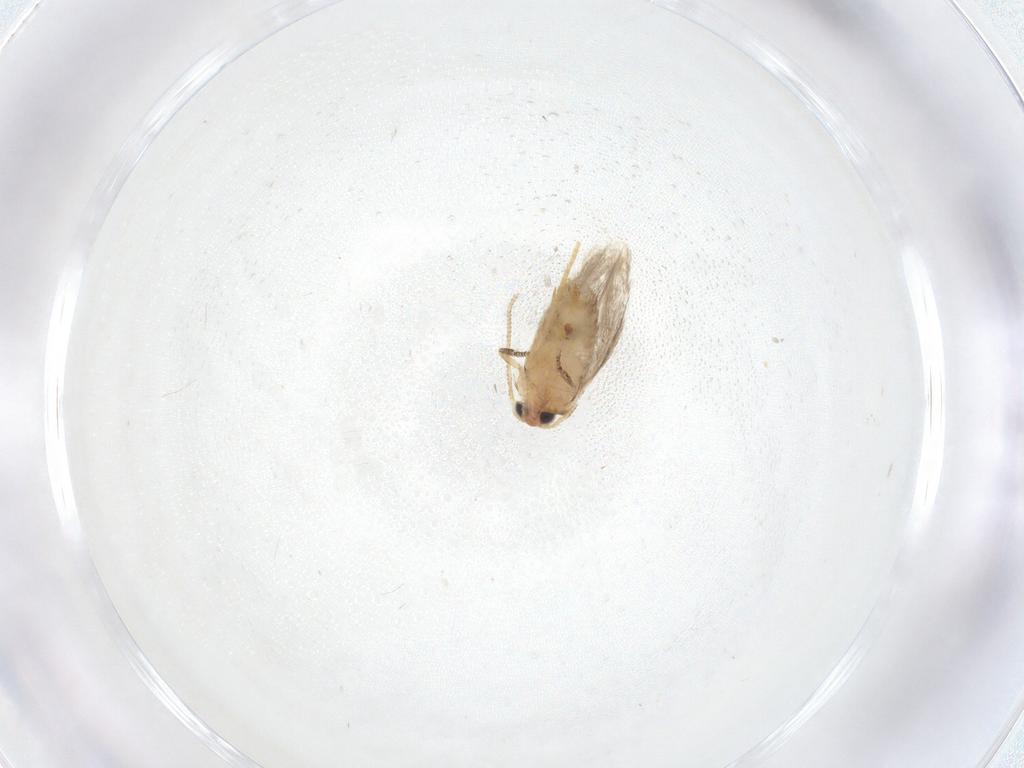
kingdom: Animalia
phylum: Arthropoda
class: Insecta
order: Lepidoptera
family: Nepticulidae
